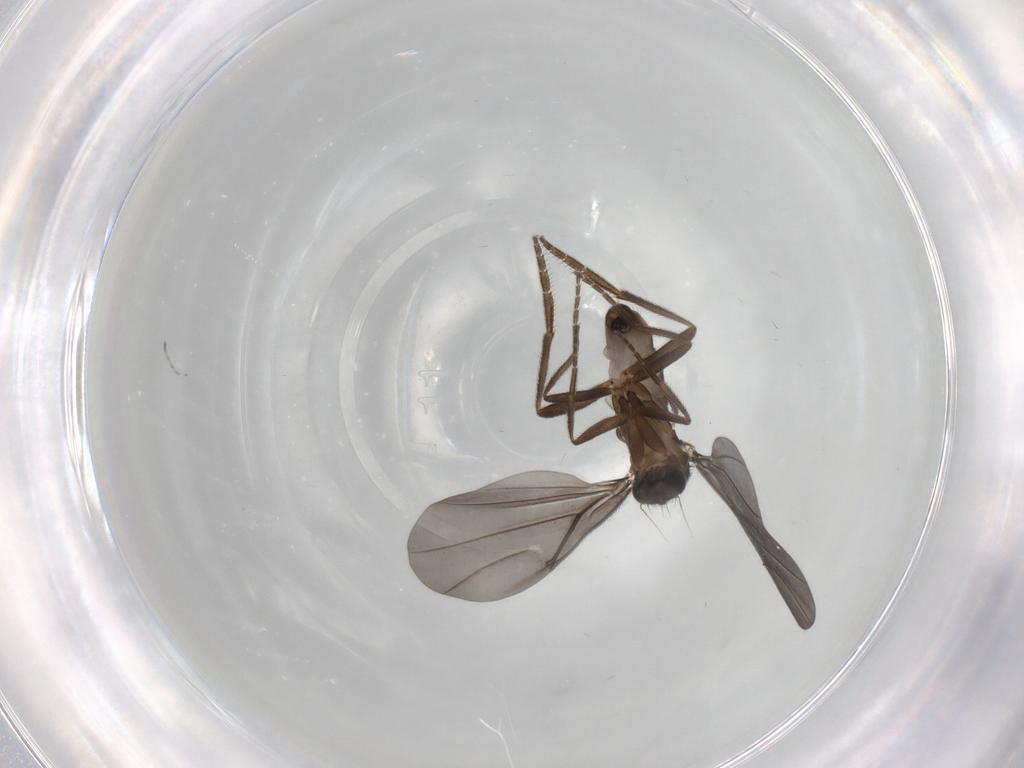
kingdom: Animalia
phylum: Arthropoda
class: Insecta
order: Diptera
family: Phoridae
